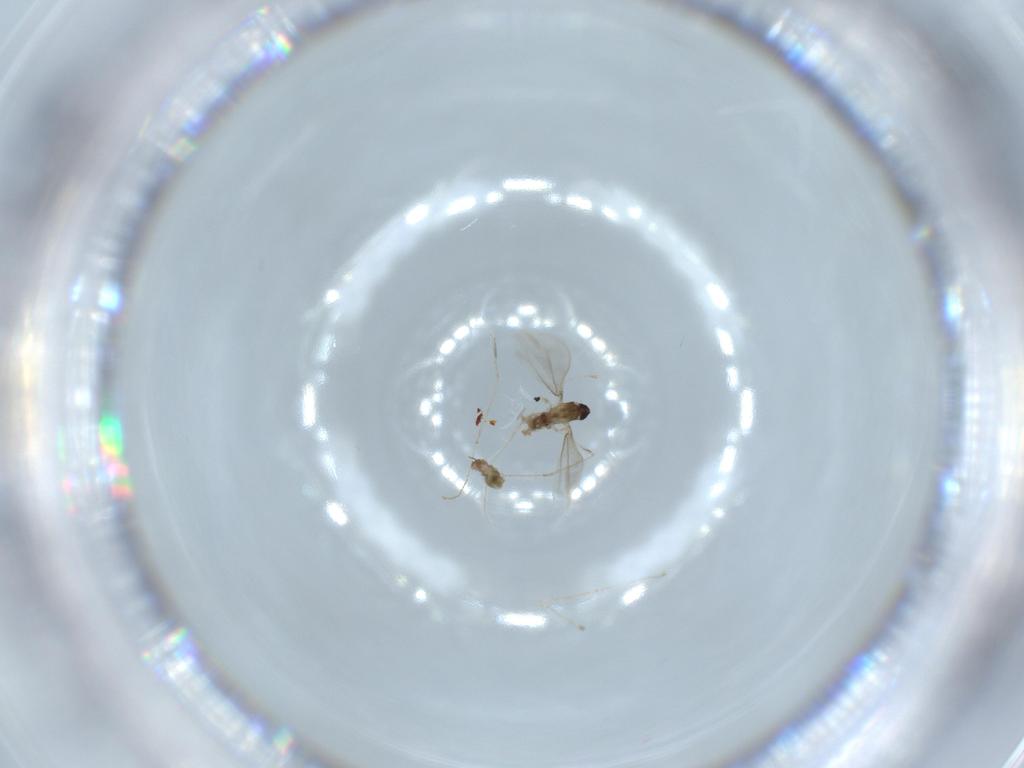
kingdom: Animalia
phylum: Arthropoda
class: Insecta
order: Diptera
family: Cecidomyiidae
